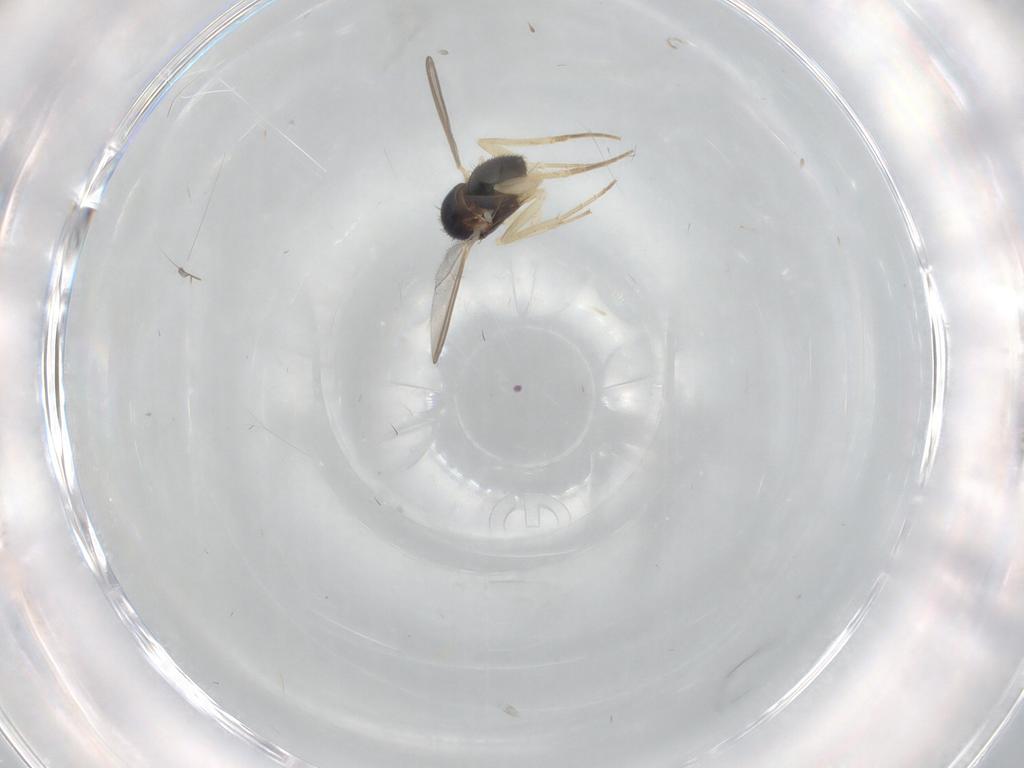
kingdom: Animalia
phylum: Arthropoda
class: Insecta
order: Diptera
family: Dolichopodidae
